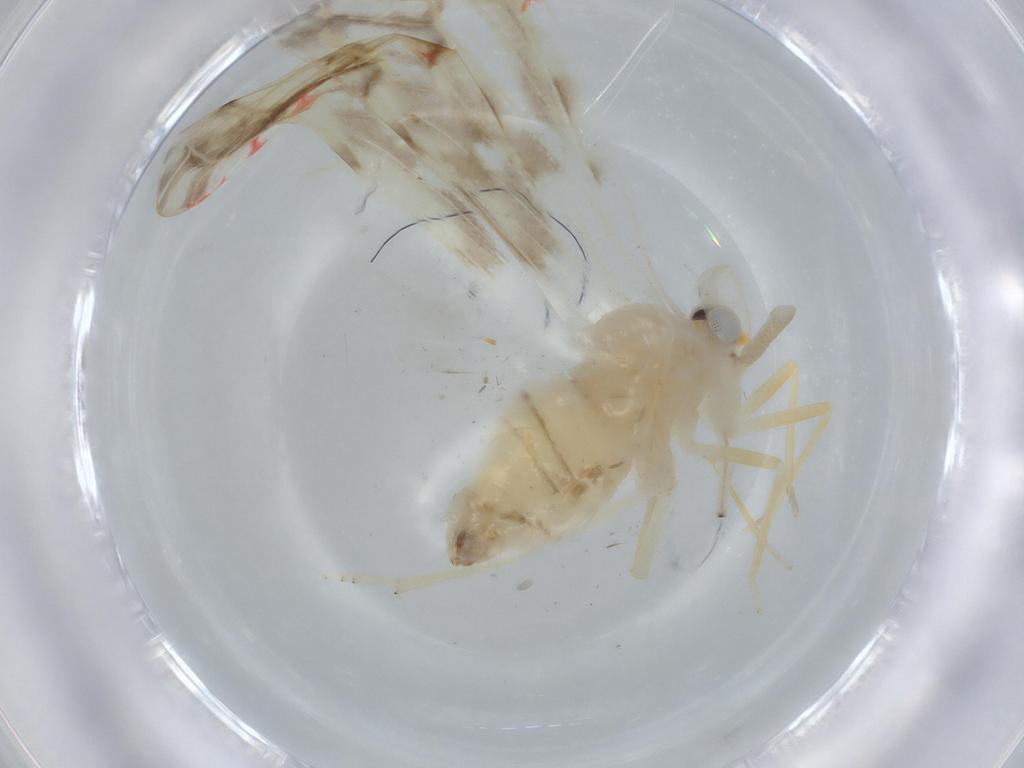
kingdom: Animalia
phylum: Arthropoda
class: Insecta
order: Hemiptera
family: Derbidae
